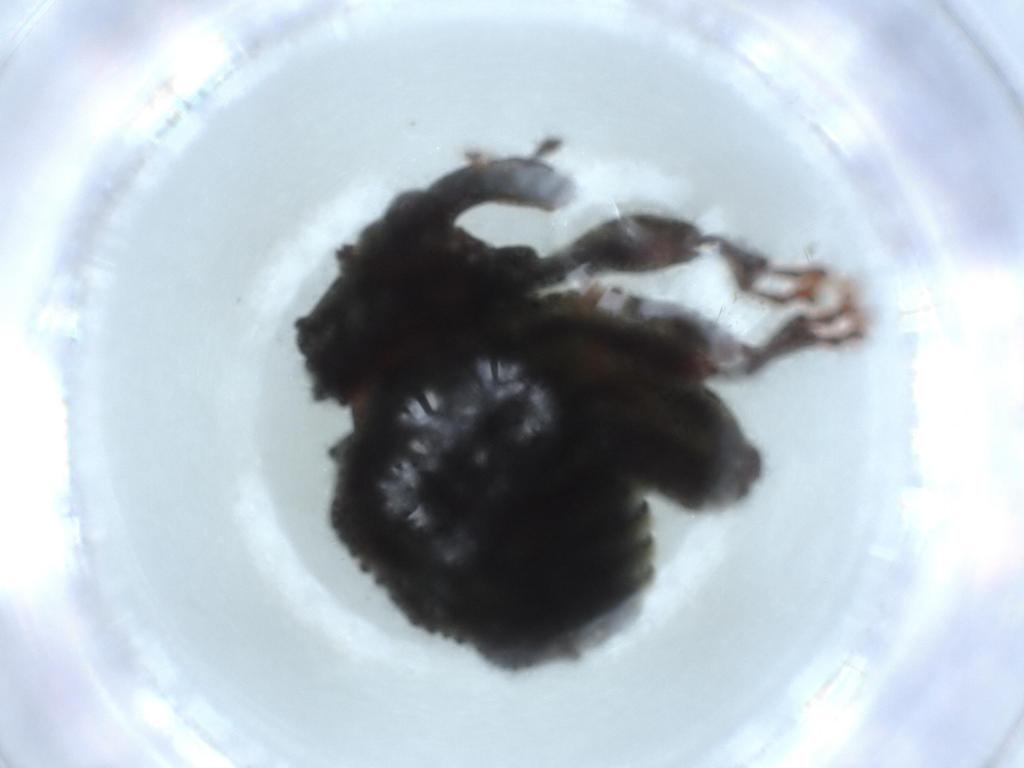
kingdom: Animalia
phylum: Arthropoda
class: Insecta
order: Coleoptera
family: Curculionidae
